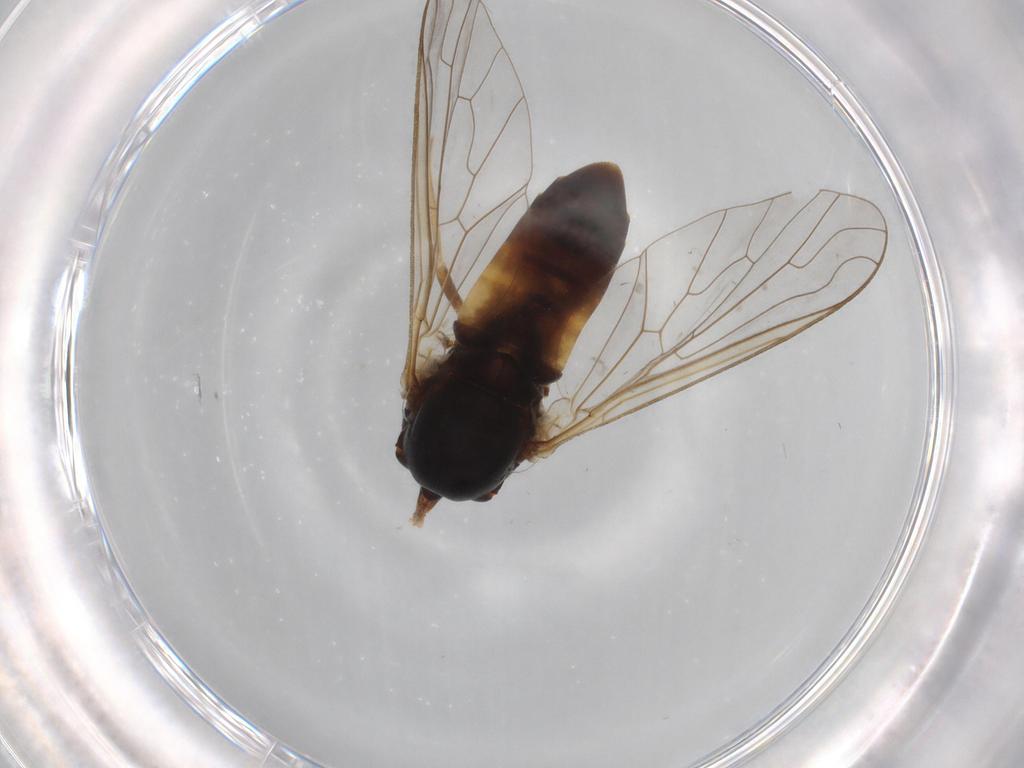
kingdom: Animalia
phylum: Arthropoda
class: Insecta
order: Diptera
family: Bombyliidae
